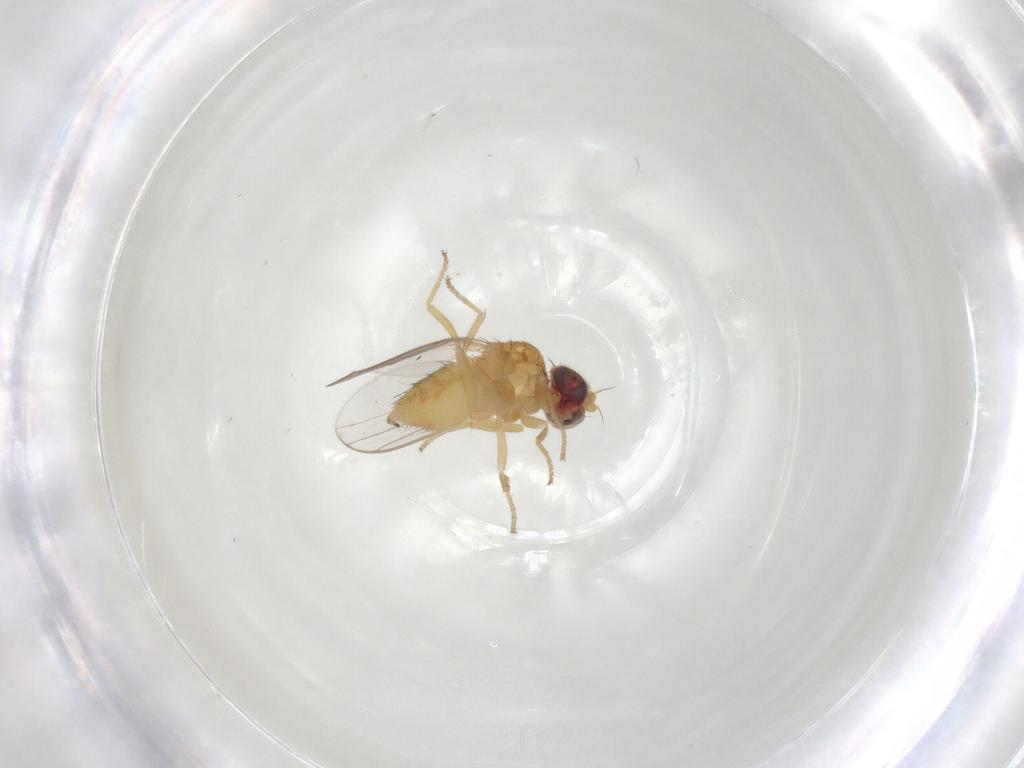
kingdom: Animalia
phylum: Arthropoda
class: Insecta
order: Diptera
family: Chloropidae
